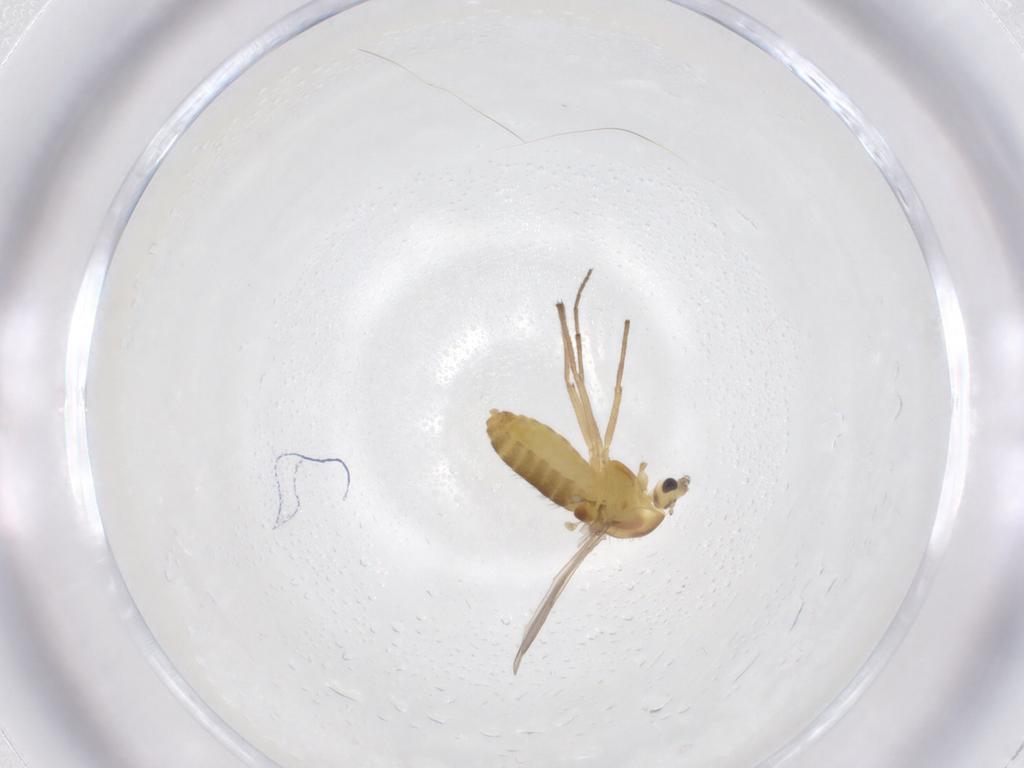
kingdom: Animalia
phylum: Arthropoda
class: Insecta
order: Diptera
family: Chironomidae
